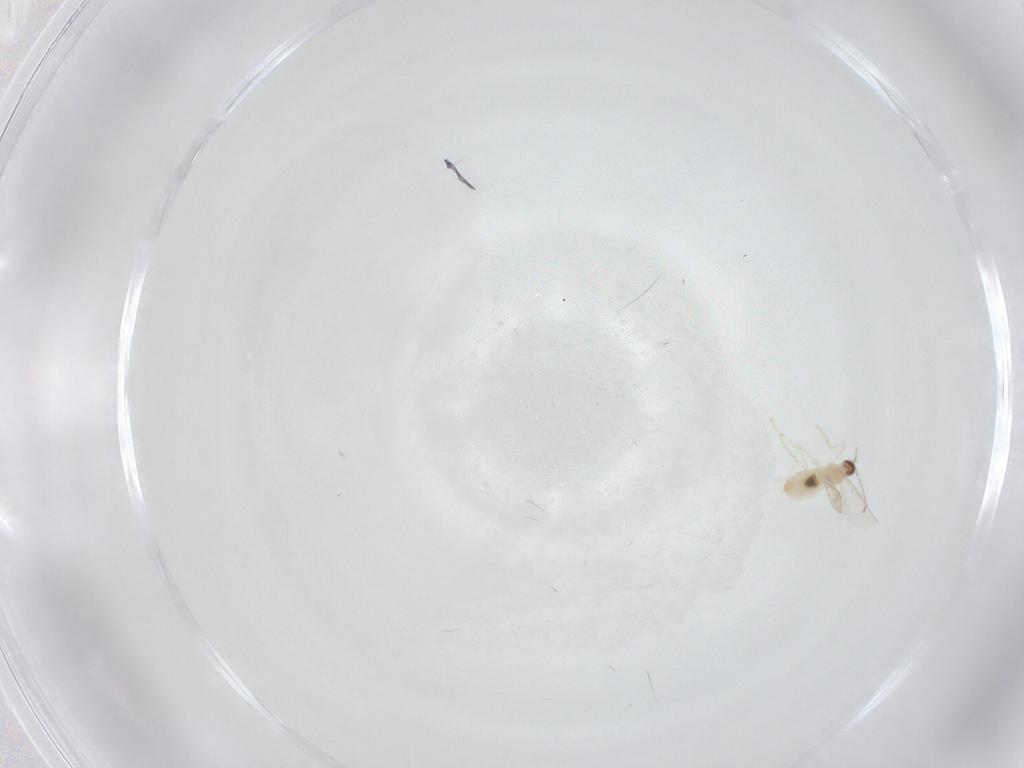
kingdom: Animalia
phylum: Arthropoda
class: Insecta
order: Diptera
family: Cecidomyiidae
